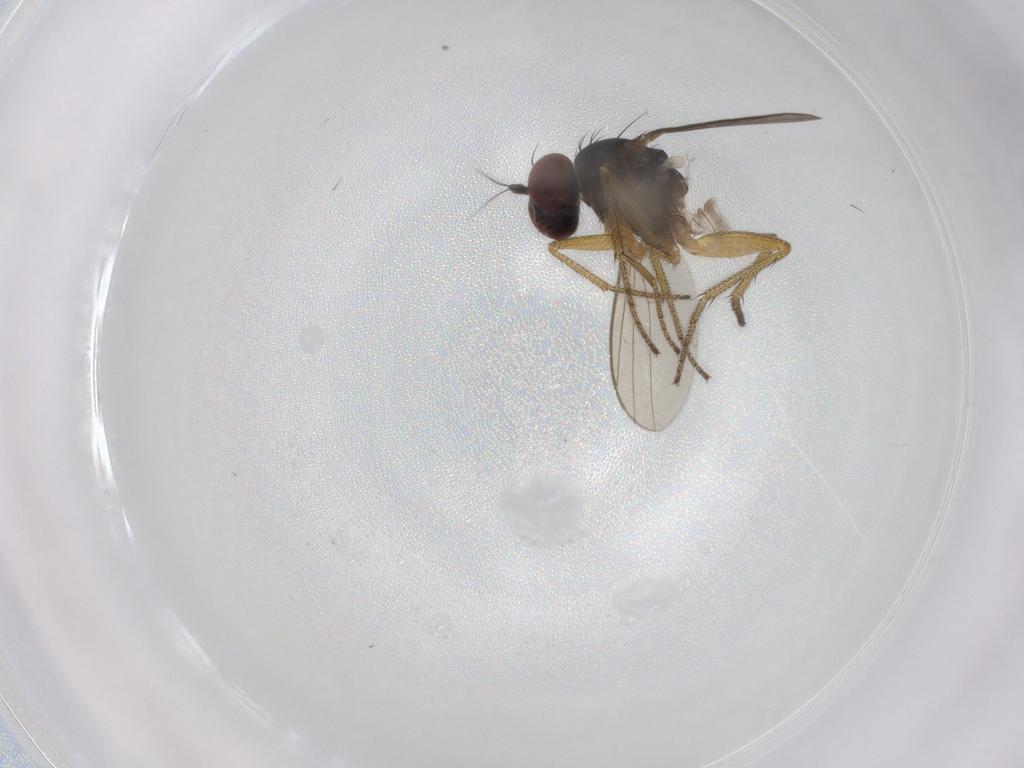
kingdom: Animalia
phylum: Arthropoda
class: Insecta
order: Diptera
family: Dolichopodidae
